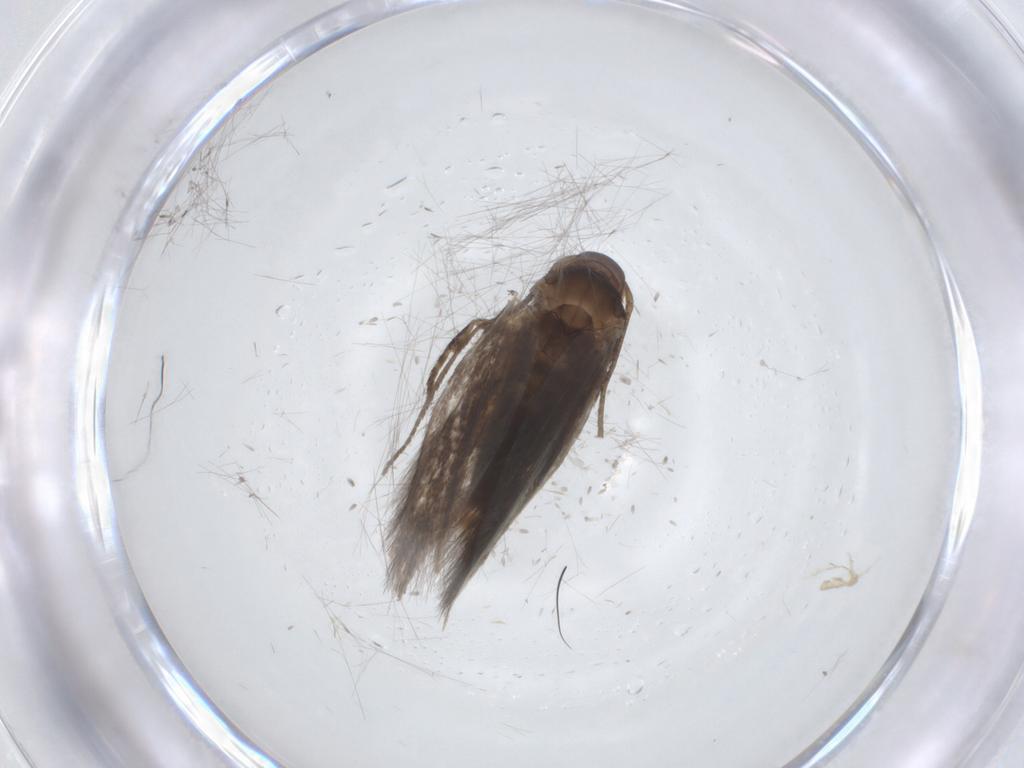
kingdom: Animalia
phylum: Arthropoda
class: Insecta
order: Lepidoptera
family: Elachistidae
